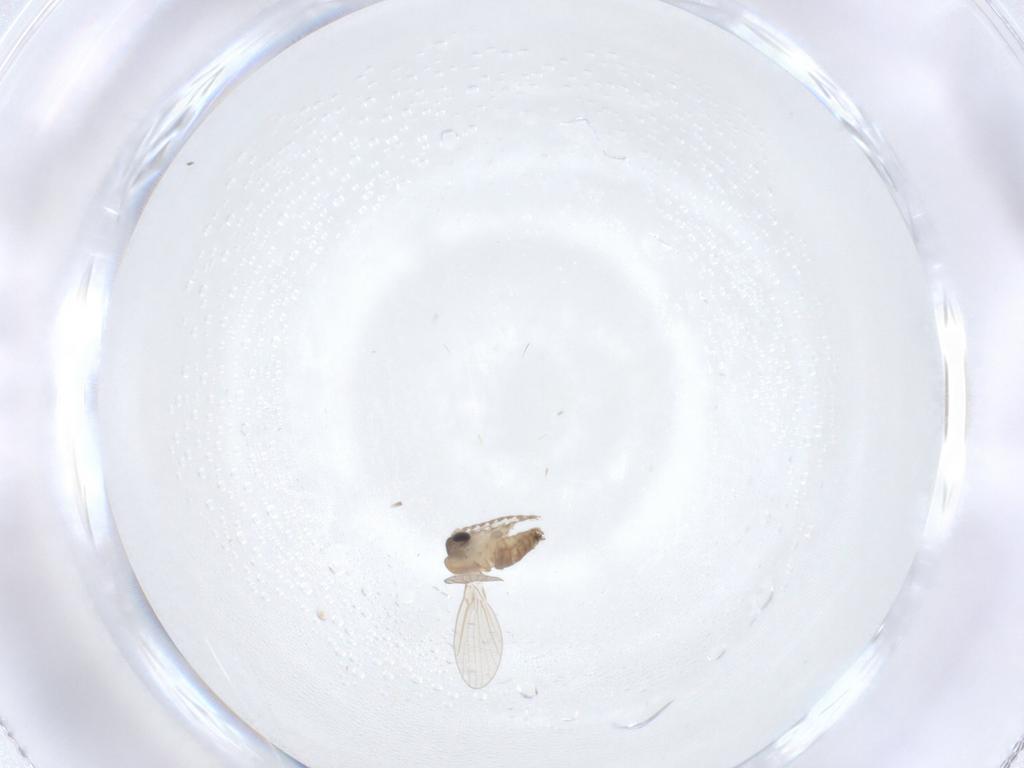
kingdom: Animalia
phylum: Arthropoda
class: Insecta
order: Diptera
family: Psychodidae
